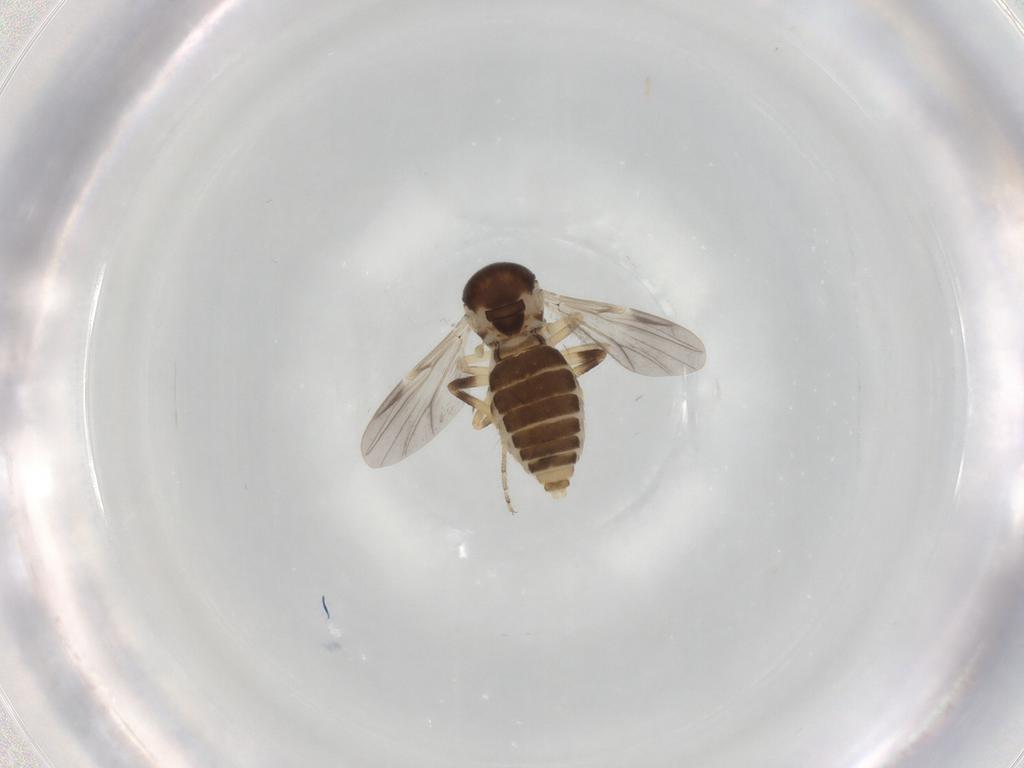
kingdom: Animalia
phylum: Arthropoda
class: Insecta
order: Diptera
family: Ceratopogonidae
